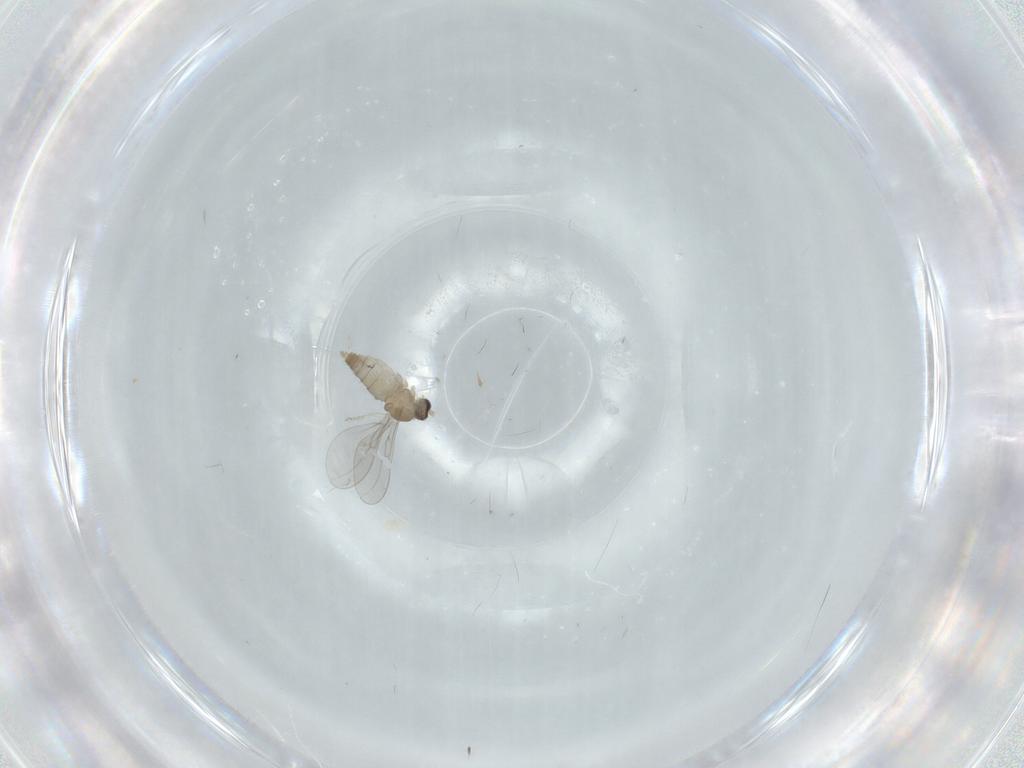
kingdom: Animalia
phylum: Arthropoda
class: Insecta
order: Diptera
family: Cecidomyiidae
